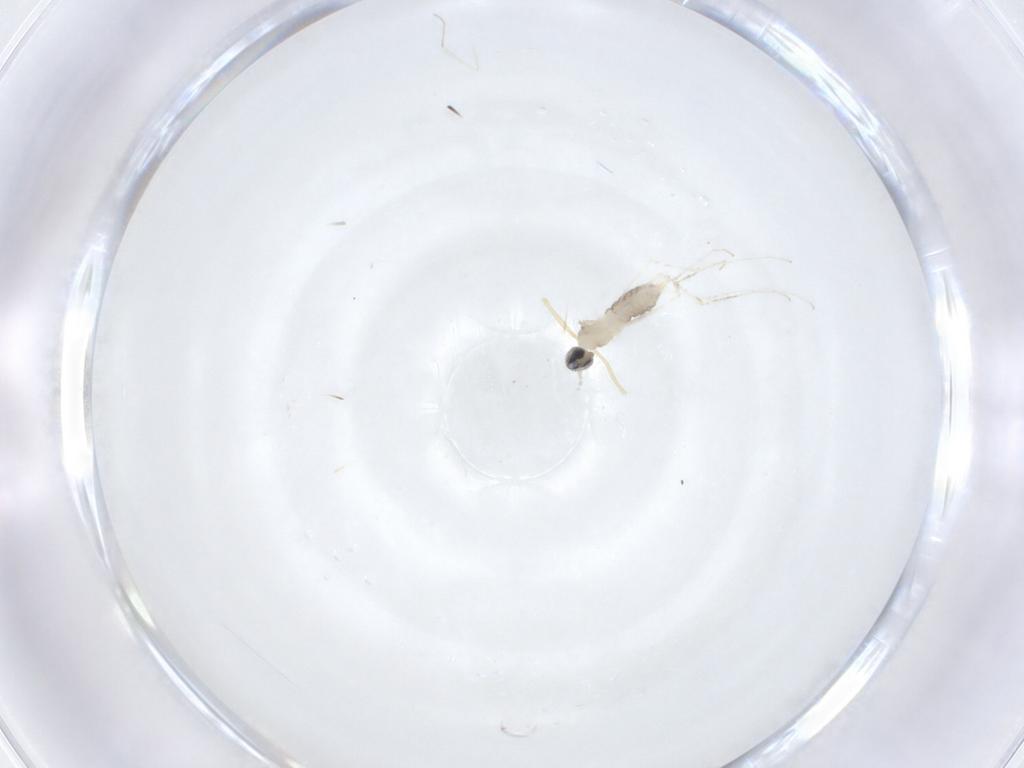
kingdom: Animalia
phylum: Arthropoda
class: Insecta
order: Diptera
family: Cecidomyiidae
